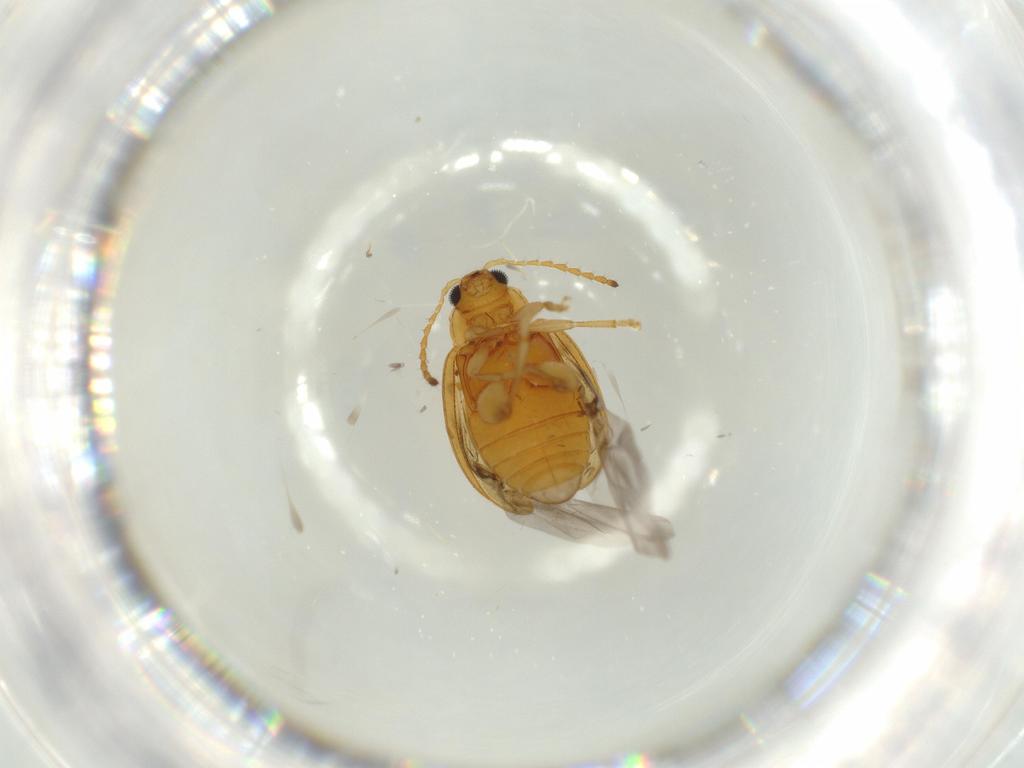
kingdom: Animalia
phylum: Arthropoda
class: Insecta
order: Coleoptera
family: Chrysomelidae
